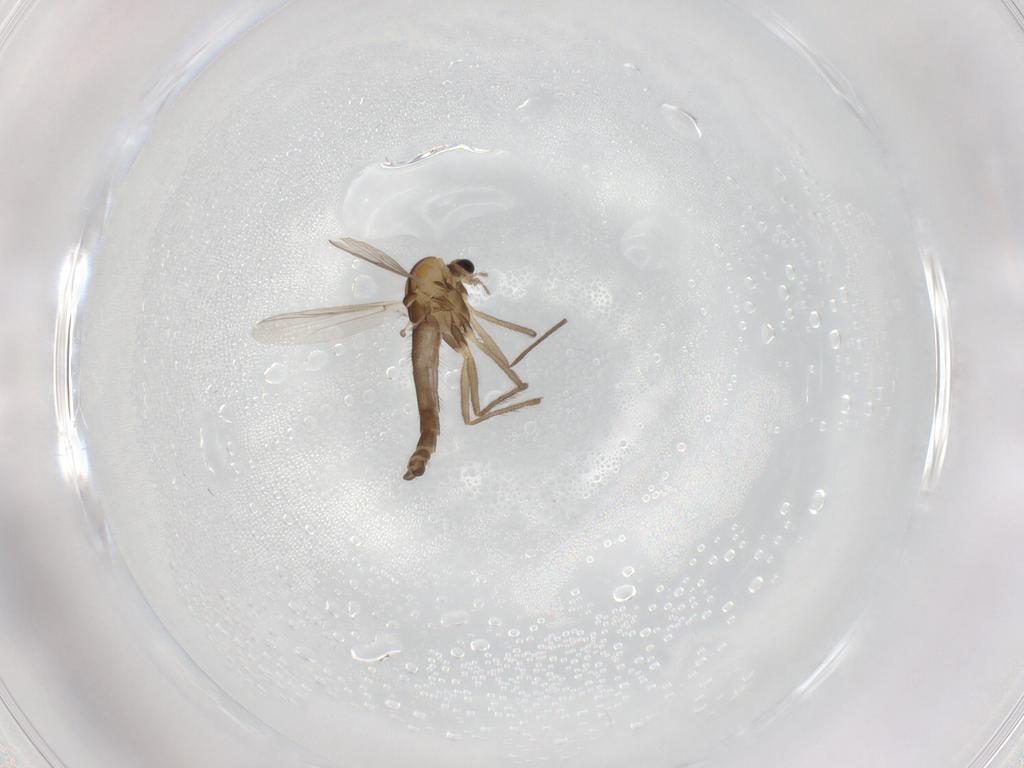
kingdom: Animalia
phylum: Arthropoda
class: Insecta
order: Diptera
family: Chironomidae
